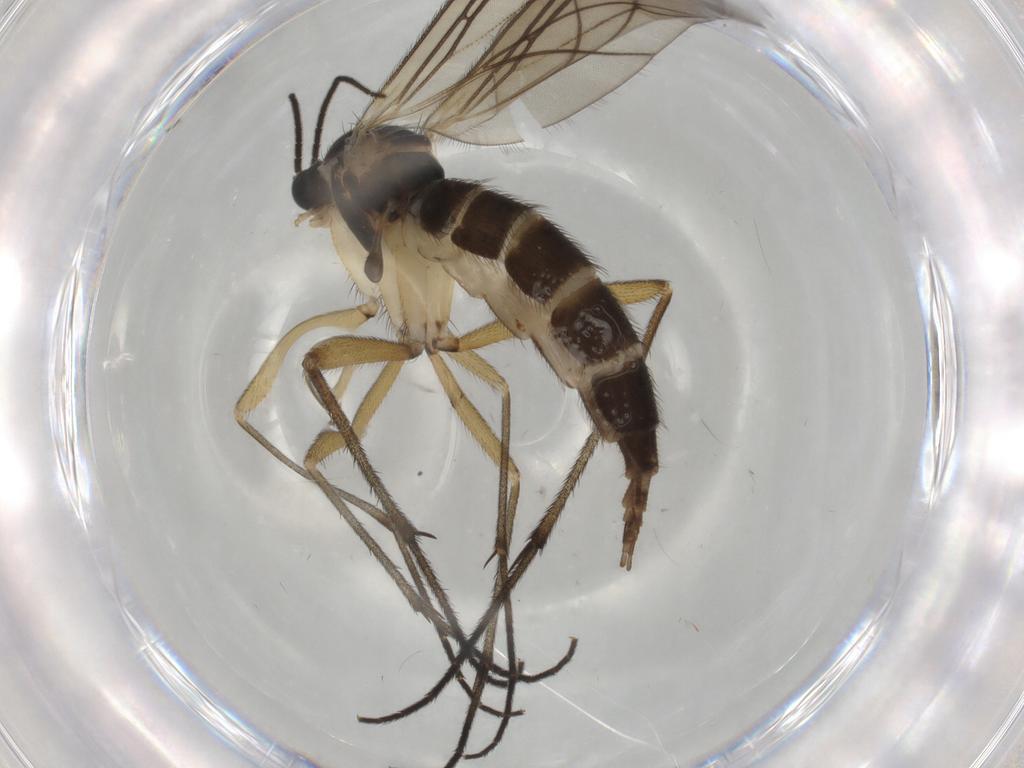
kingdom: Animalia
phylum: Arthropoda
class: Insecta
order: Diptera
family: Sciaridae
